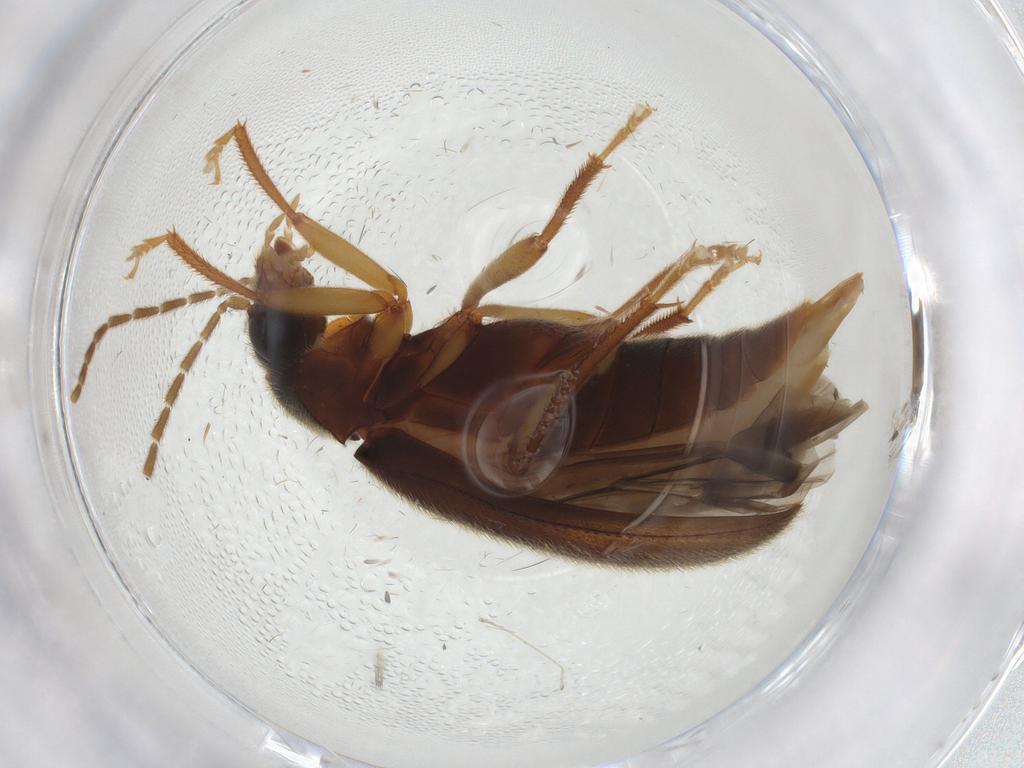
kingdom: Animalia
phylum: Arthropoda
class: Insecta
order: Coleoptera
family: Ptilodactylidae
